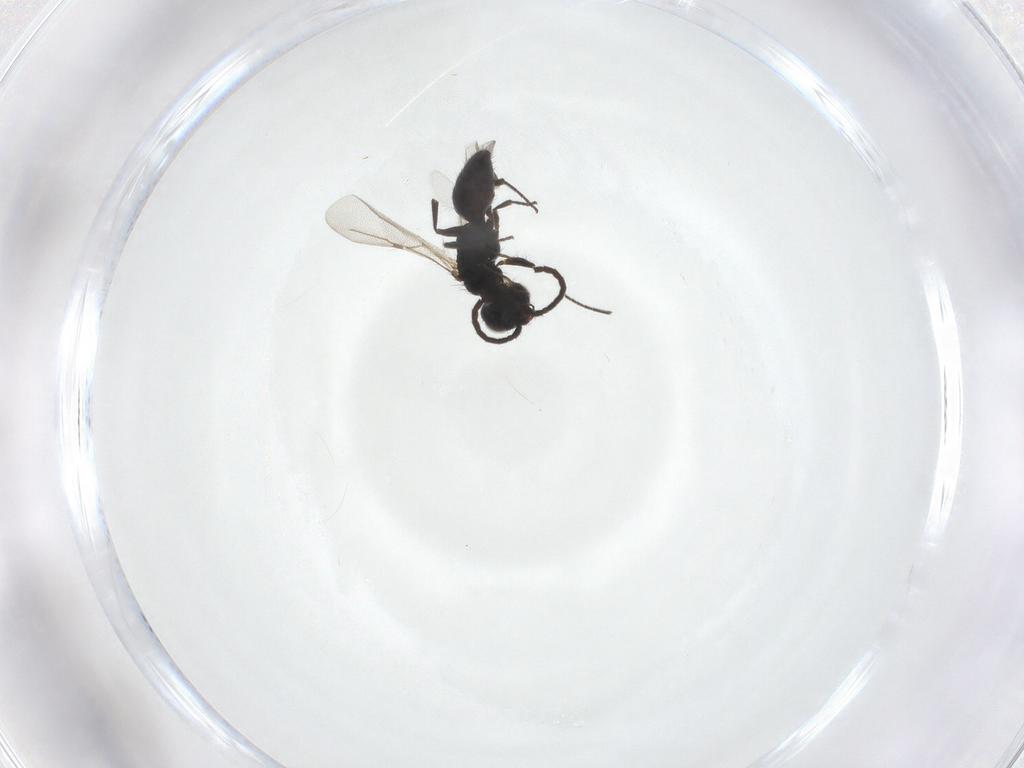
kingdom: Animalia
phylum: Arthropoda
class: Insecta
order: Hymenoptera
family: Bethylidae
